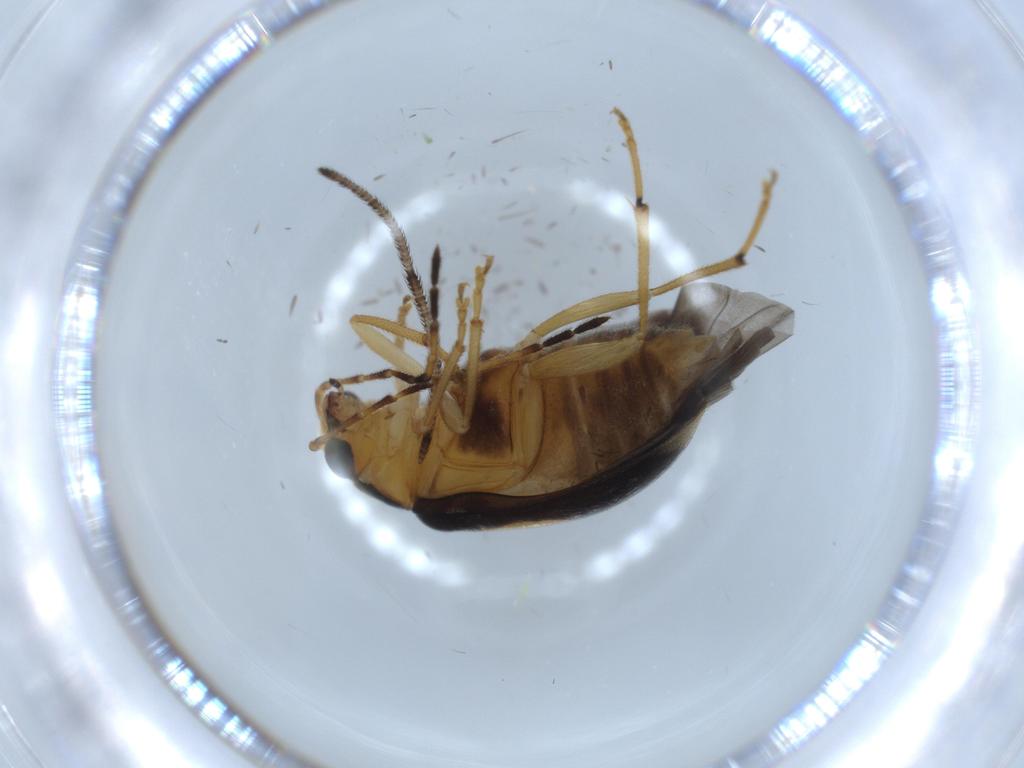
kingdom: Animalia
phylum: Arthropoda
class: Insecta
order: Coleoptera
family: Chrysomelidae
